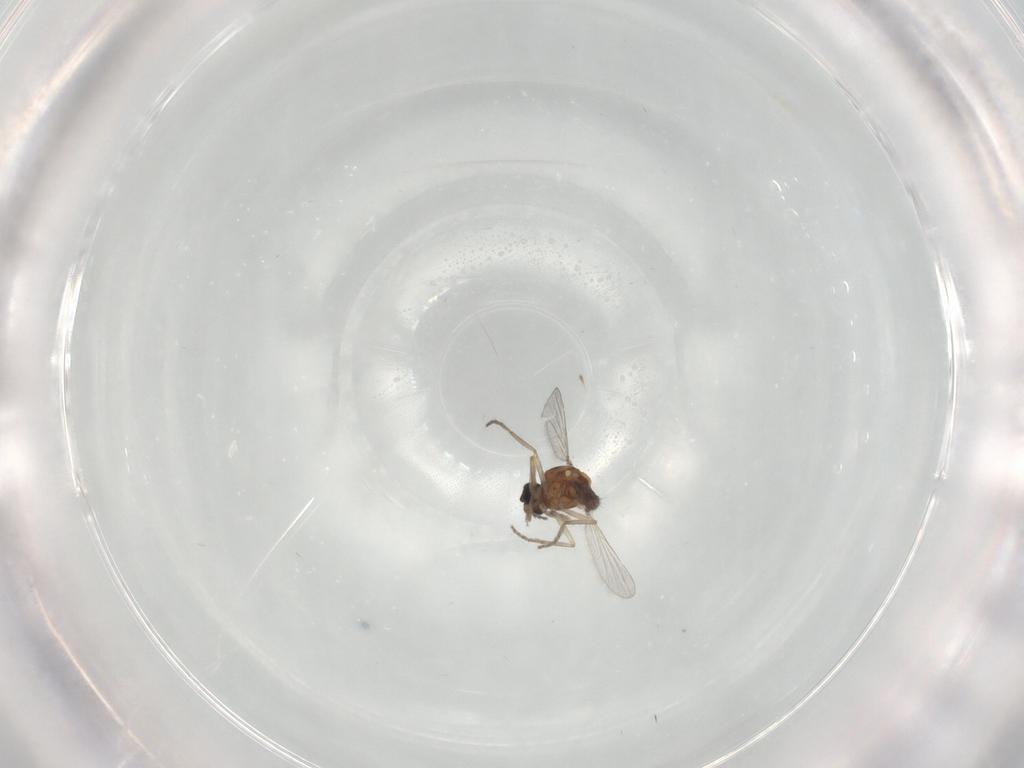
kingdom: Animalia
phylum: Arthropoda
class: Insecta
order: Diptera
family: Ceratopogonidae
